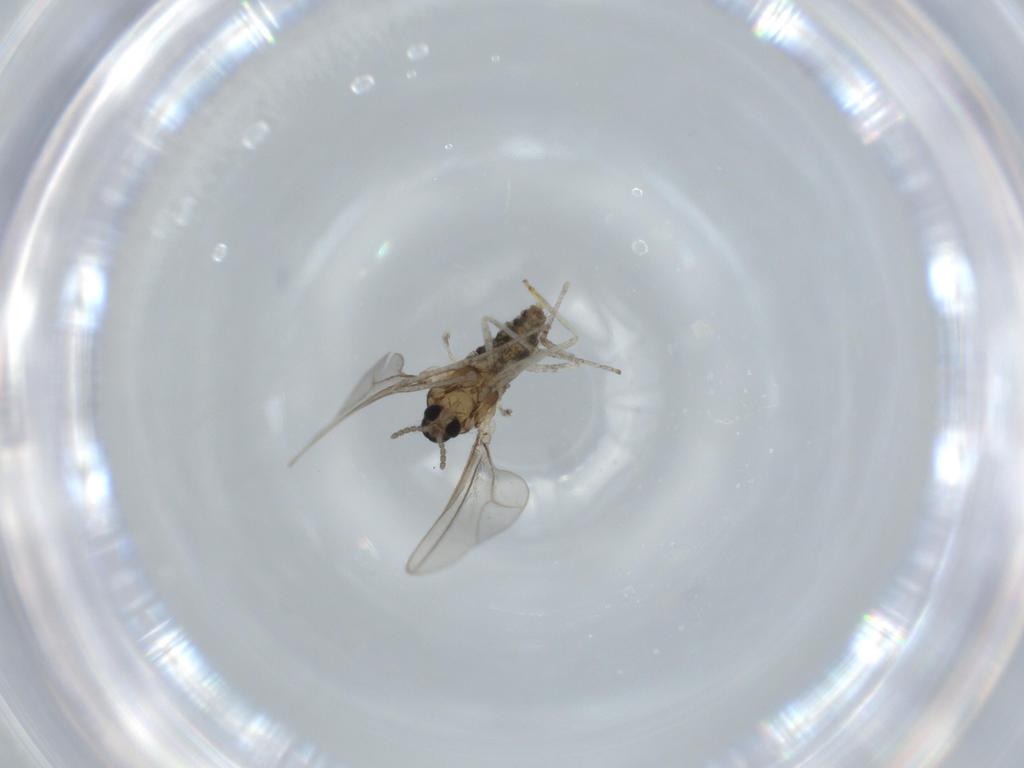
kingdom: Animalia
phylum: Arthropoda
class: Insecta
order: Diptera
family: Cecidomyiidae
